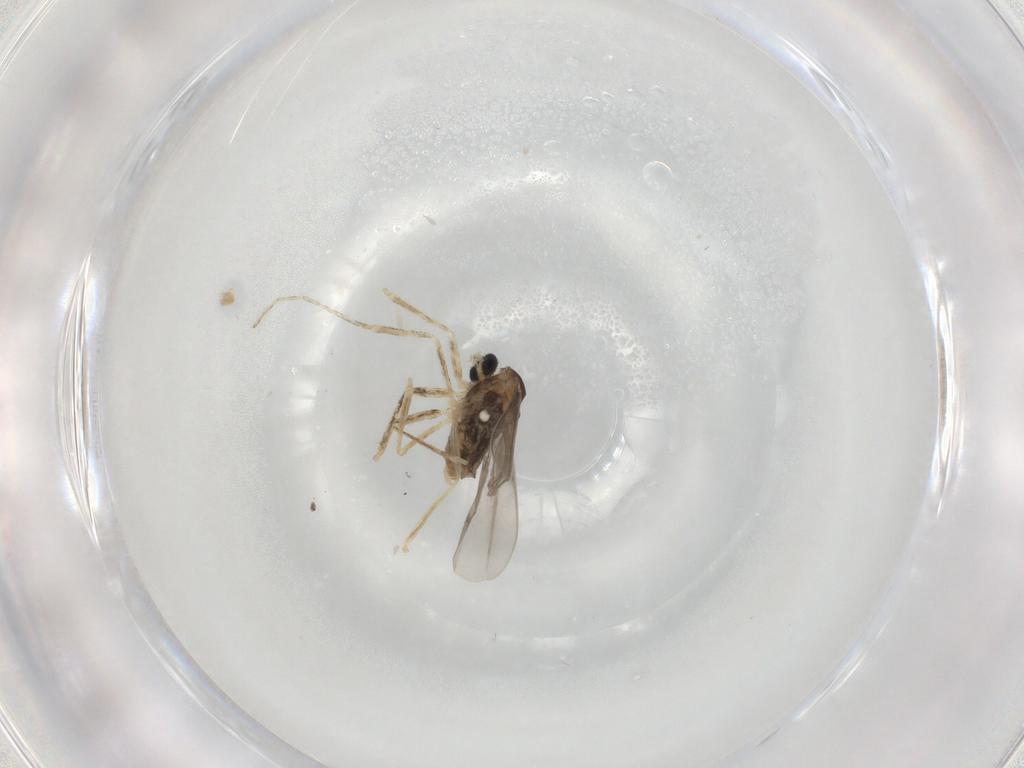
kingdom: Animalia
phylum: Arthropoda
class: Insecta
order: Diptera
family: Cecidomyiidae
